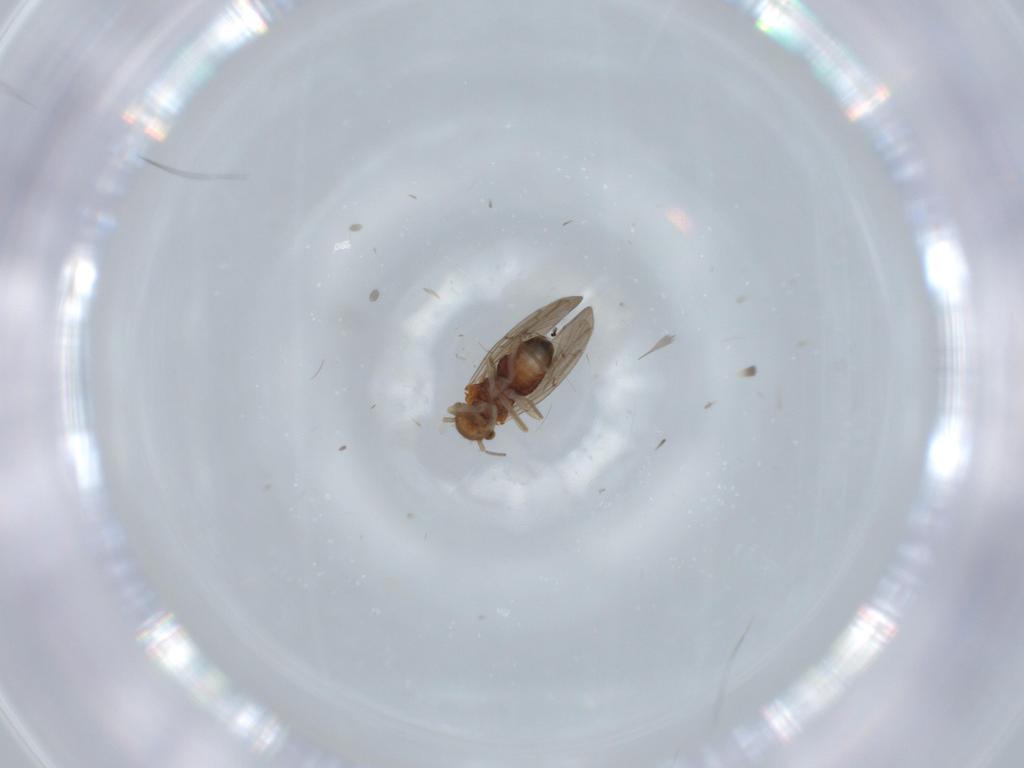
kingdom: Animalia
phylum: Arthropoda
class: Insecta
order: Psocodea
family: Ectopsocidae
